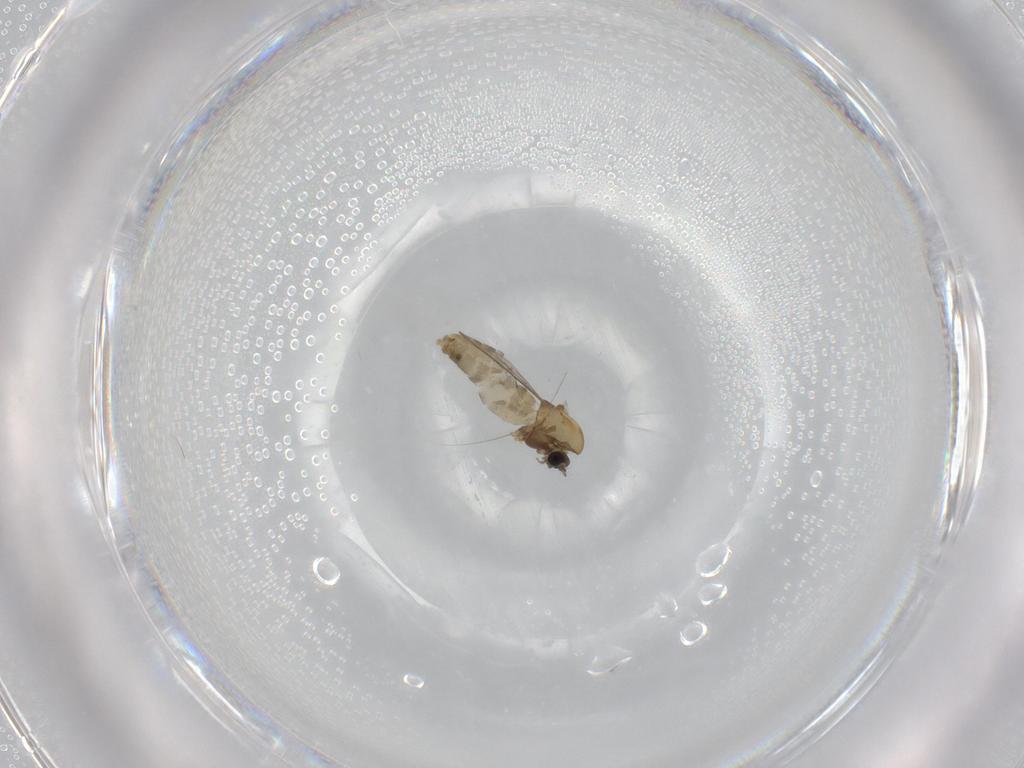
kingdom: Animalia
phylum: Arthropoda
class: Insecta
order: Diptera
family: Chironomidae
